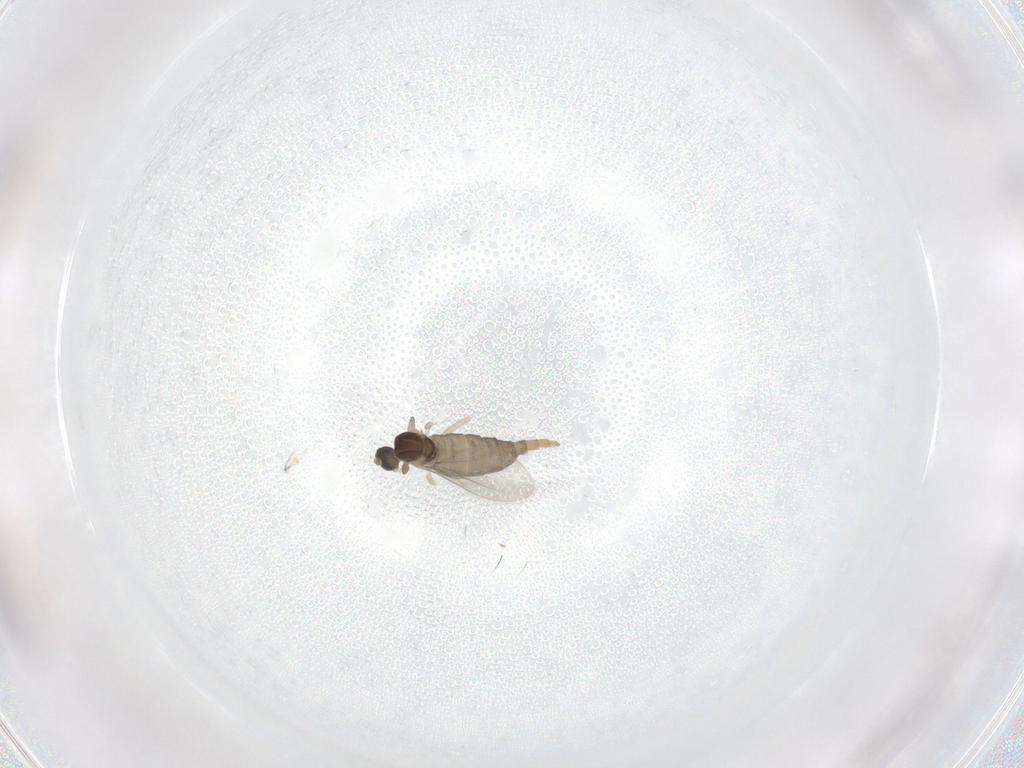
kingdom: Animalia
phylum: Arthropoda
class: Insecta
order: Diptera
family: Cecidomyiidae
